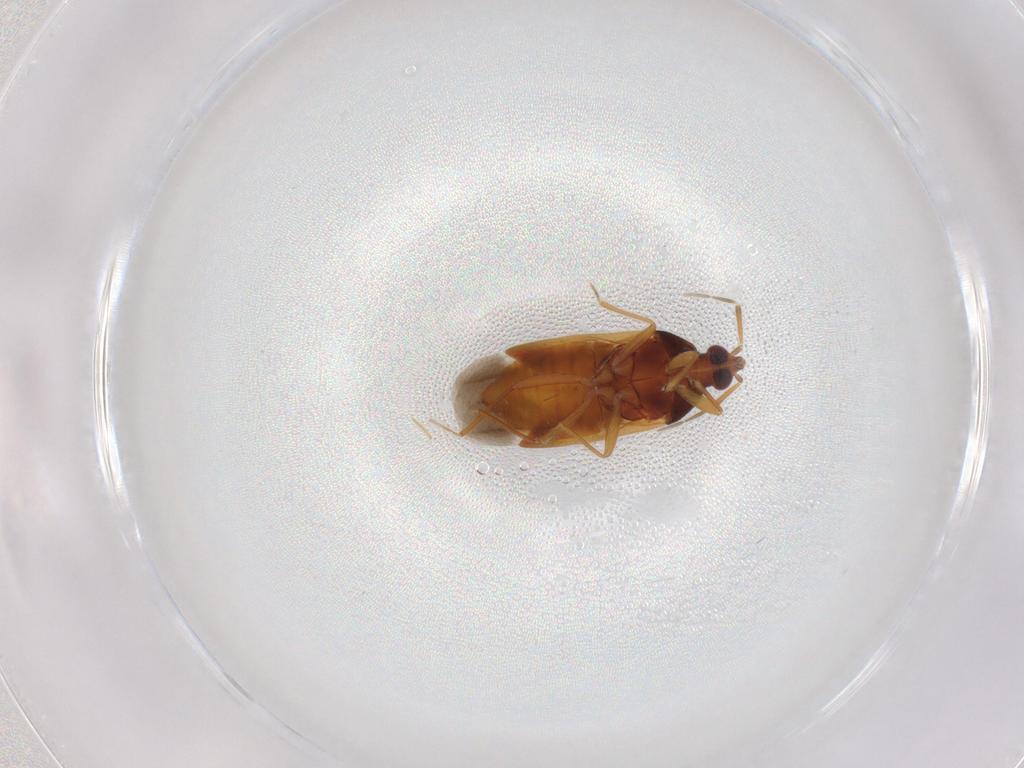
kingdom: Animalia
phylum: Arthropoda
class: Insecta
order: Hemiptera
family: Anthocoridae
